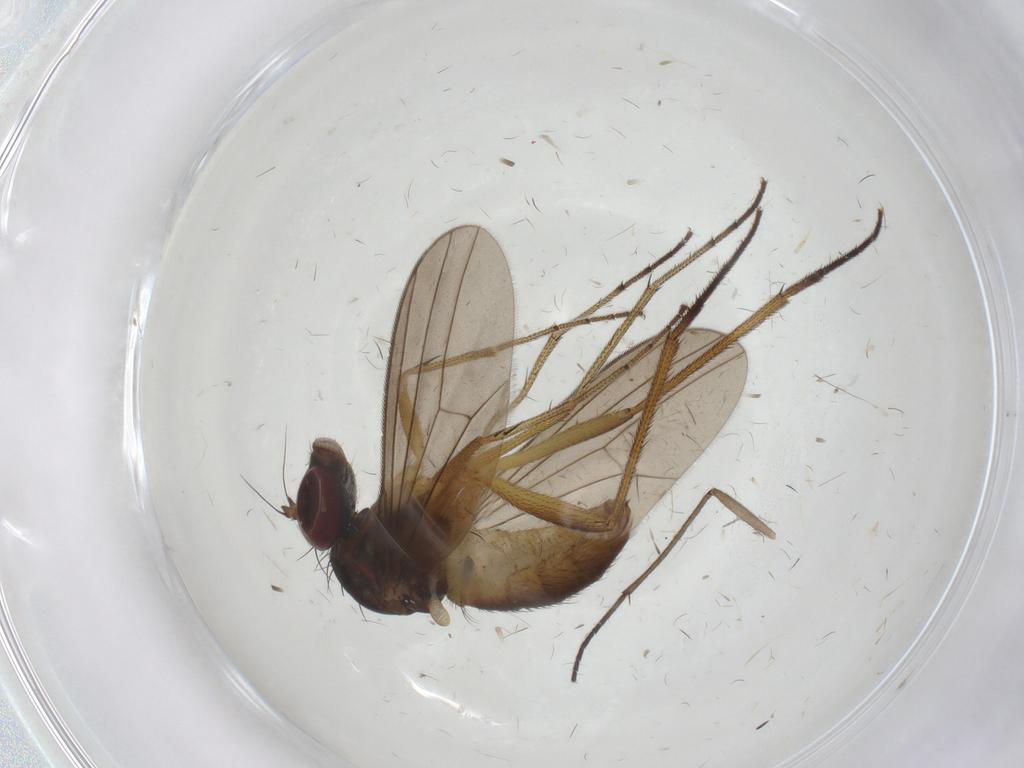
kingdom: Animalia
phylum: Arthropoda
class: Insecta
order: Diptera
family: Dolichopodidae
